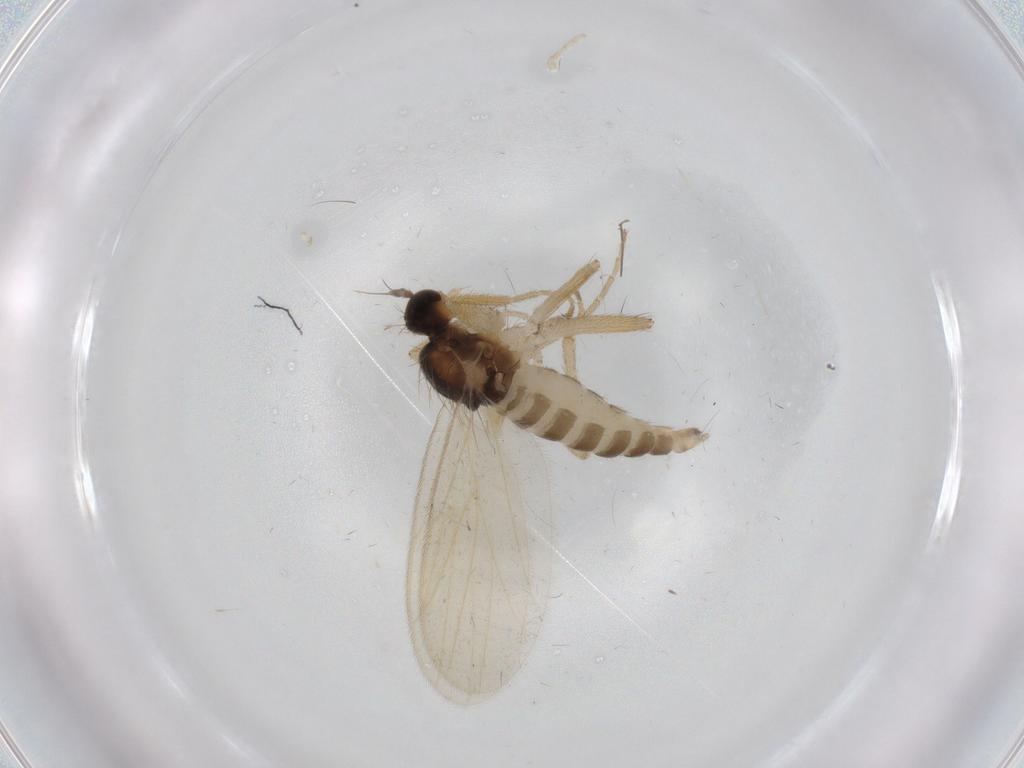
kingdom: Animalia
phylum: Arthropoda
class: Insecta
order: Diptera
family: Hybotidae
